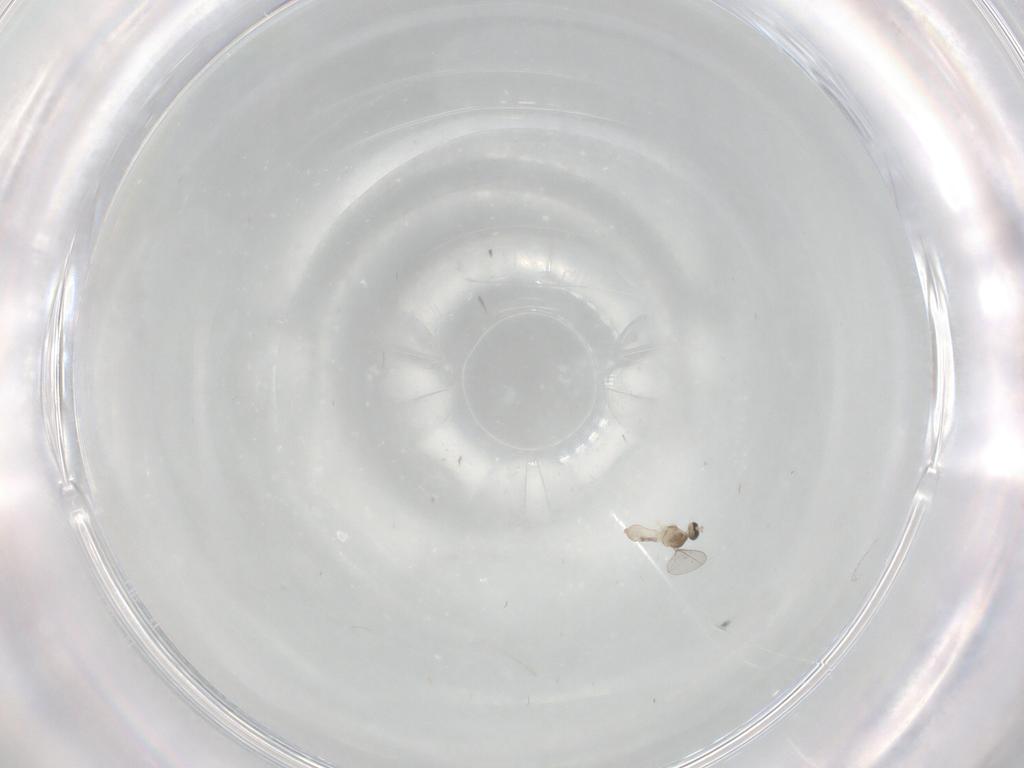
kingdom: Animalia
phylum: Arthropoda
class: Insecta
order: Diptera
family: Cecidomyiidae
